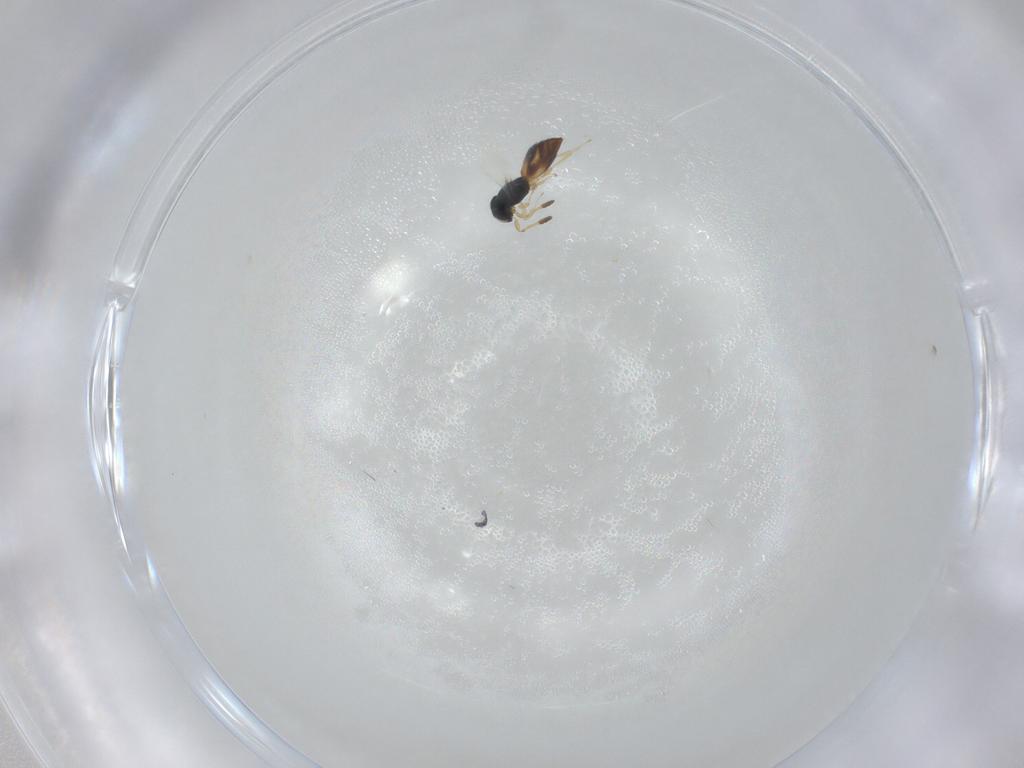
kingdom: Animalia
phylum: Arthropoda
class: Insecta
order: Hymenoptera
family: Scelionidae
